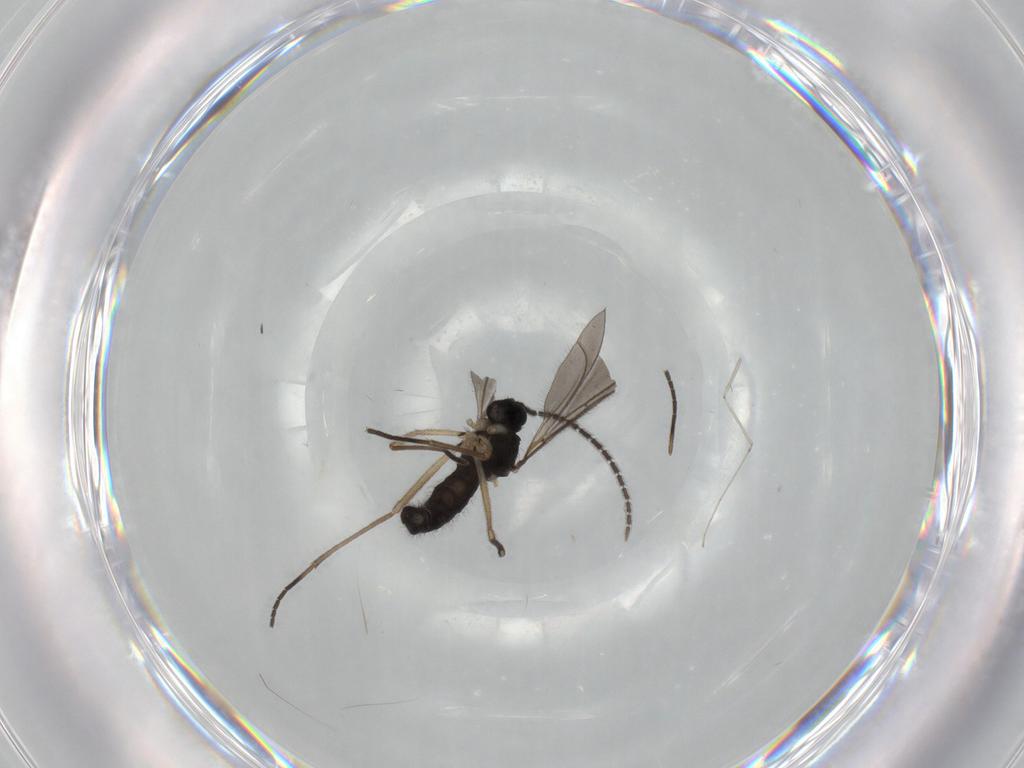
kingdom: Animalia
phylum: Arthropoda
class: Insecta
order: Diptera
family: Sciaridae
